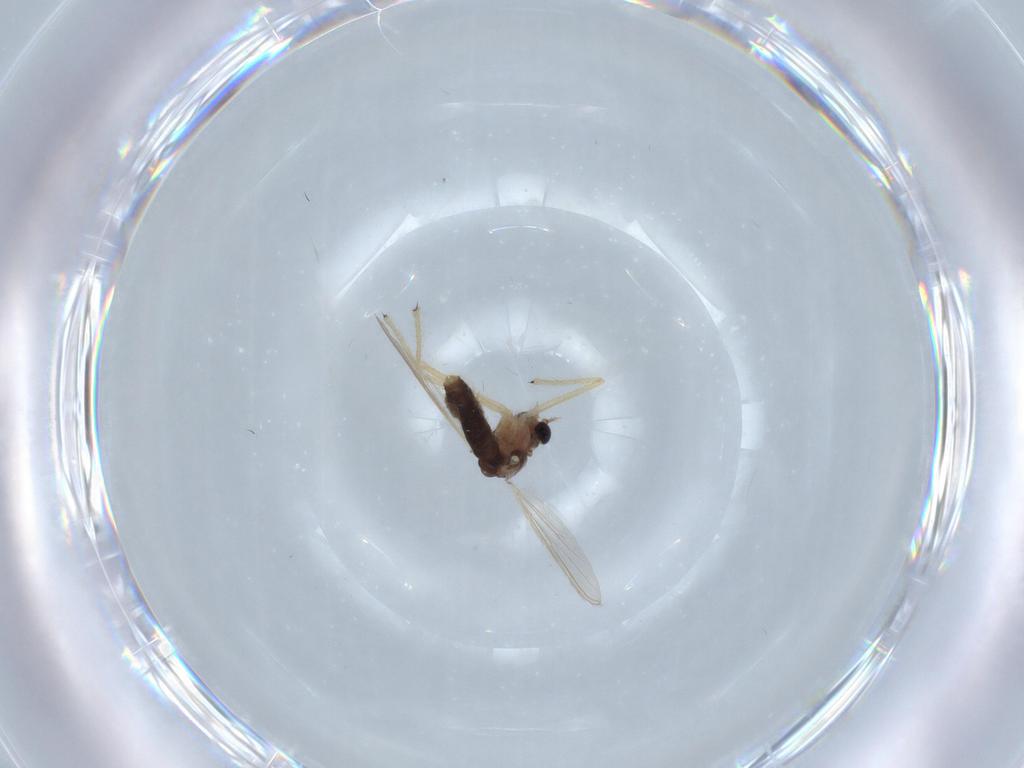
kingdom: Animalia
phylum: Arthropoda
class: Insecta
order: Diptera
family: Chironomidae
